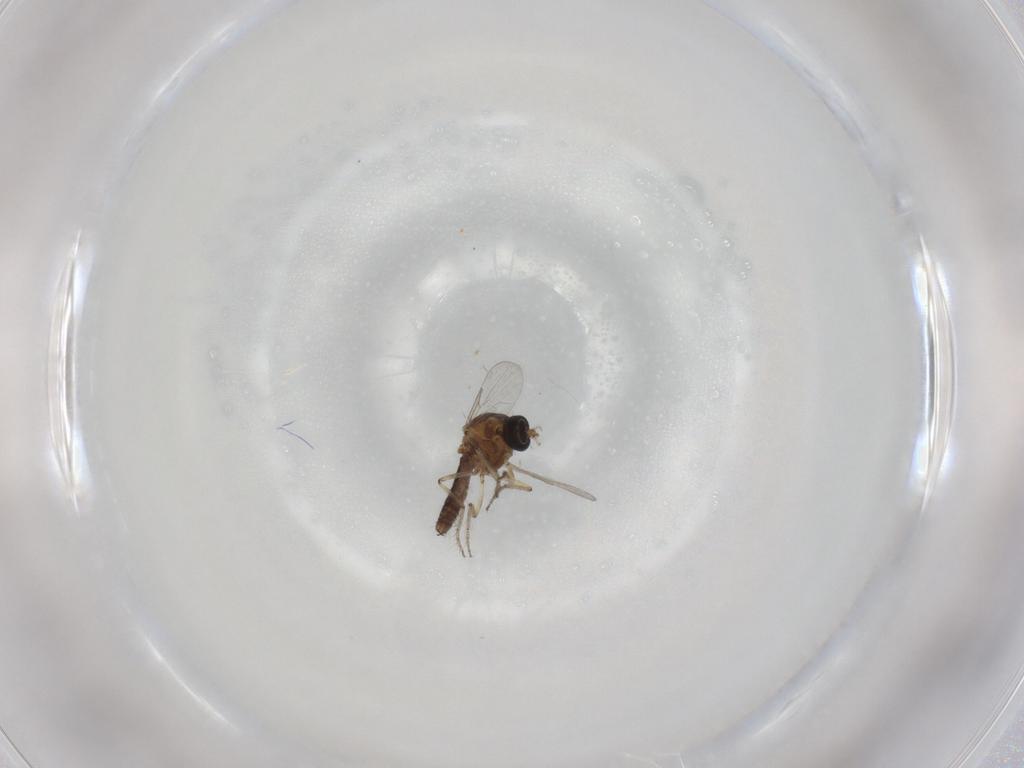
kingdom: Animalia
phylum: Arthropoda
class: Insecta
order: Diptera
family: Ceratopogonidae
